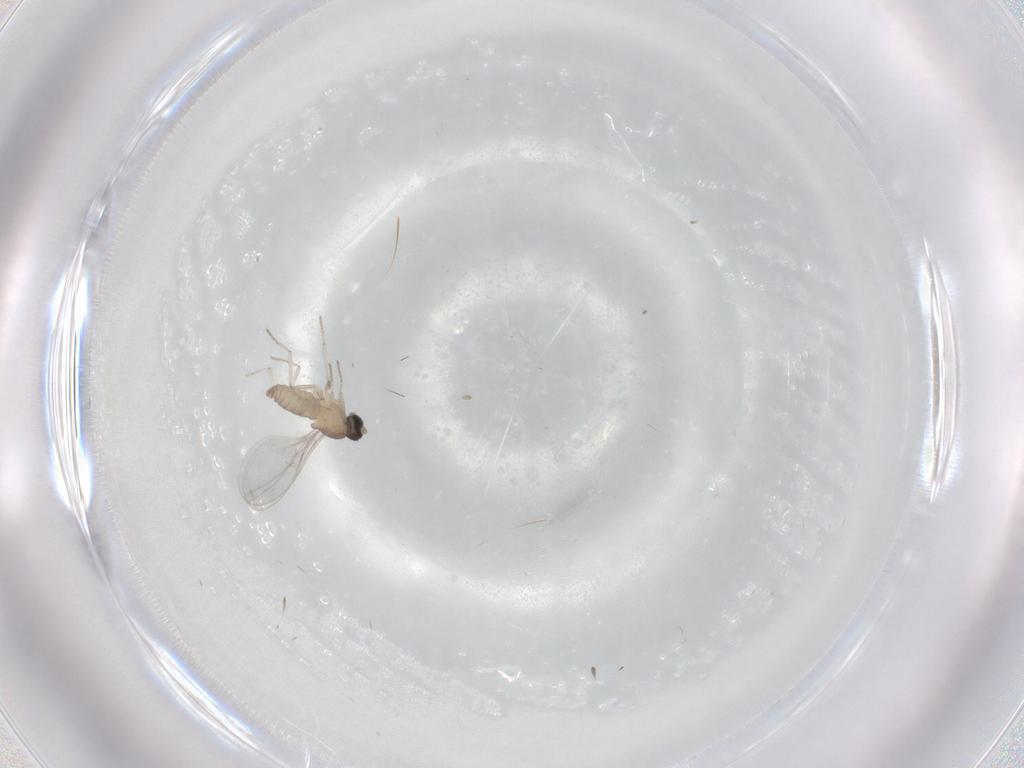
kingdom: Animalia
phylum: Arthropoda
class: Insecta
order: Diptera
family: Cecidomyiidae
